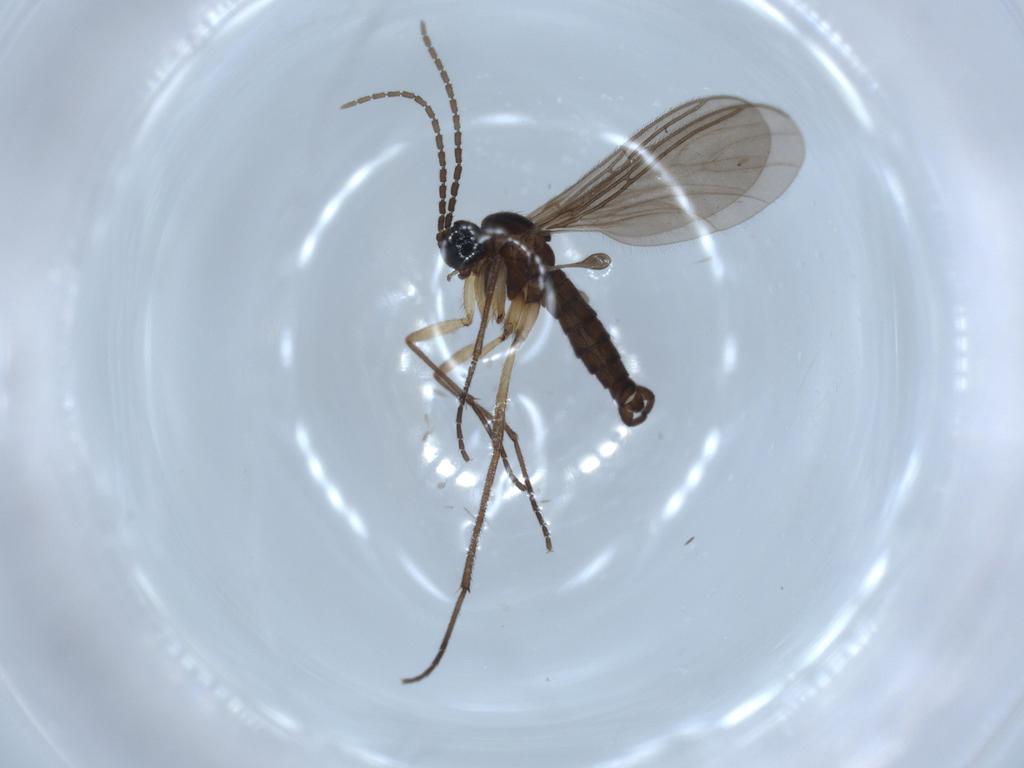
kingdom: Animalia
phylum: Arthropoda
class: Insecta
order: Diptera
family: Sciaridae
